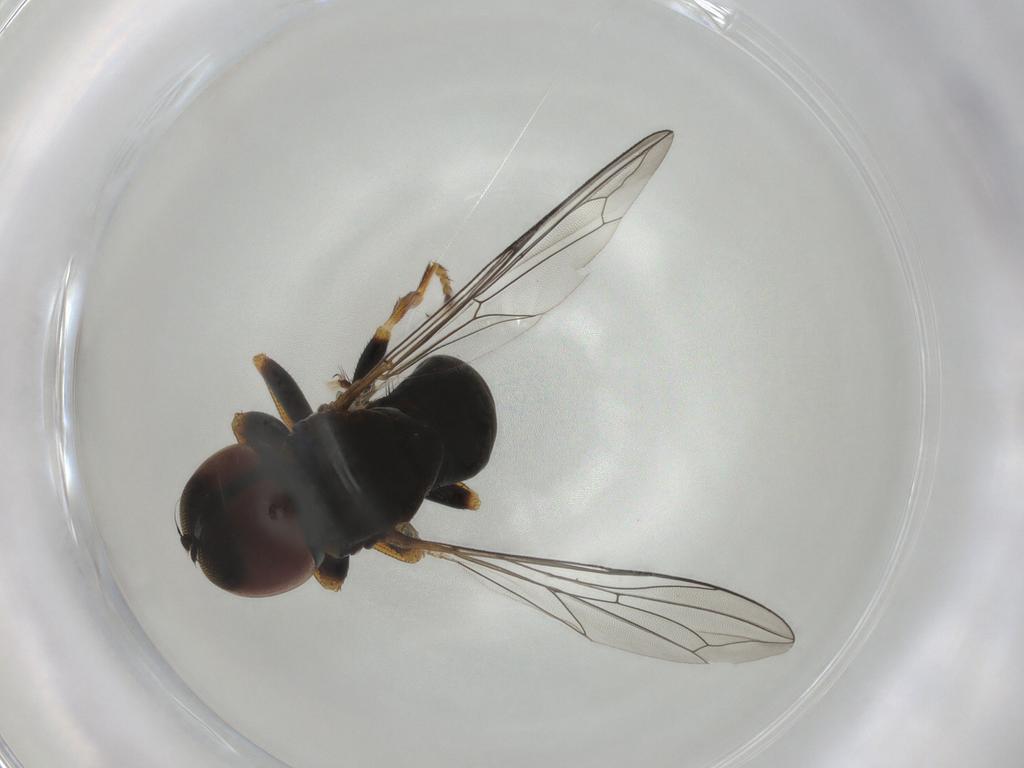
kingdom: Animalia
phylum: Arthropoda
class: Insecta
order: Diptera
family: Pipunculidae
